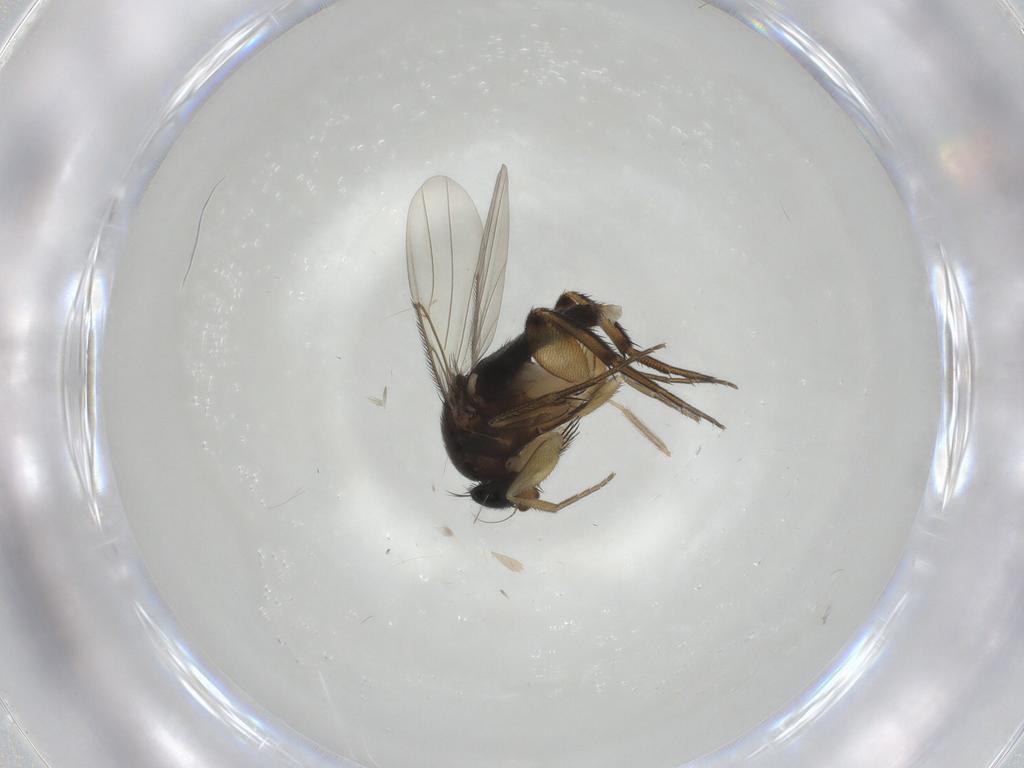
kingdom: Animalia
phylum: Arthropoda
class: Insecta
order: Diptera
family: Phoridae
